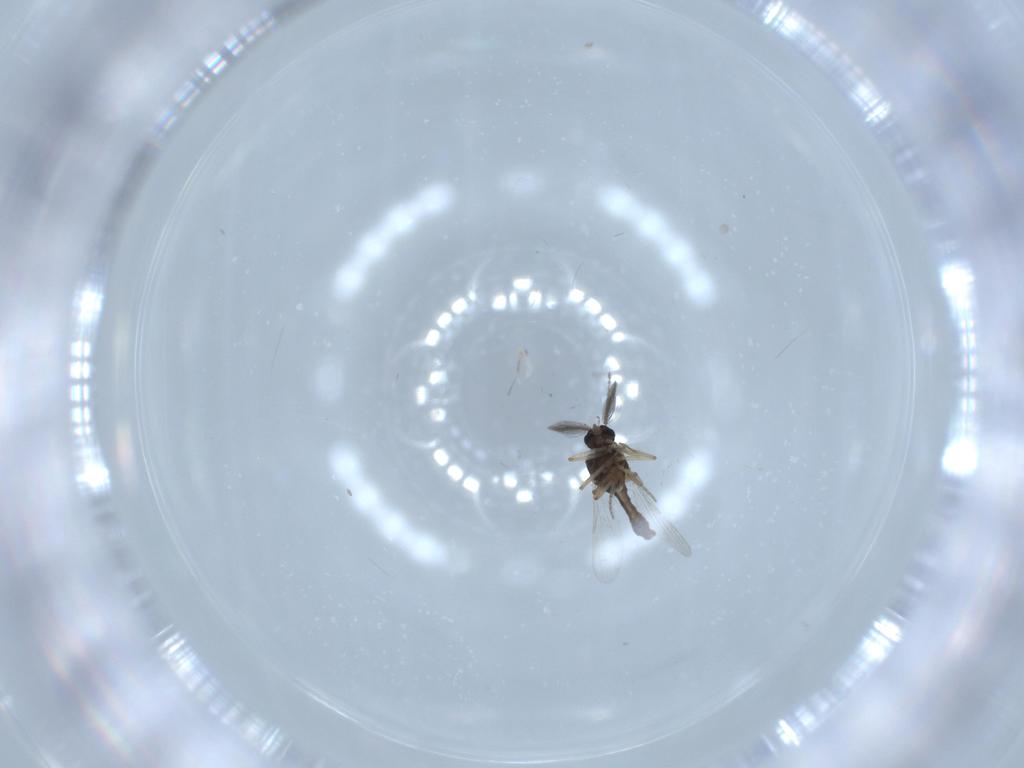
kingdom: Animalia
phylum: Arthropoda
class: Insecta
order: Diptera
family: Ceratopogonidae
